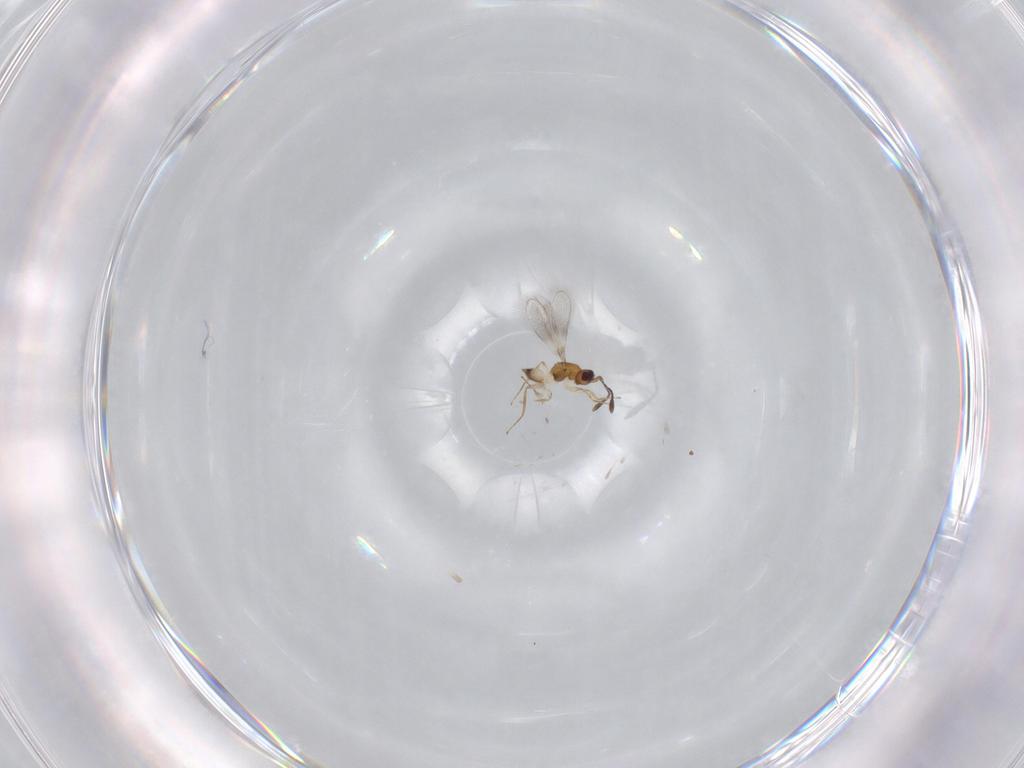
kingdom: Animalia
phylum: Arthropoda
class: Insecta
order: Hymenoptera
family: Mymaridae
